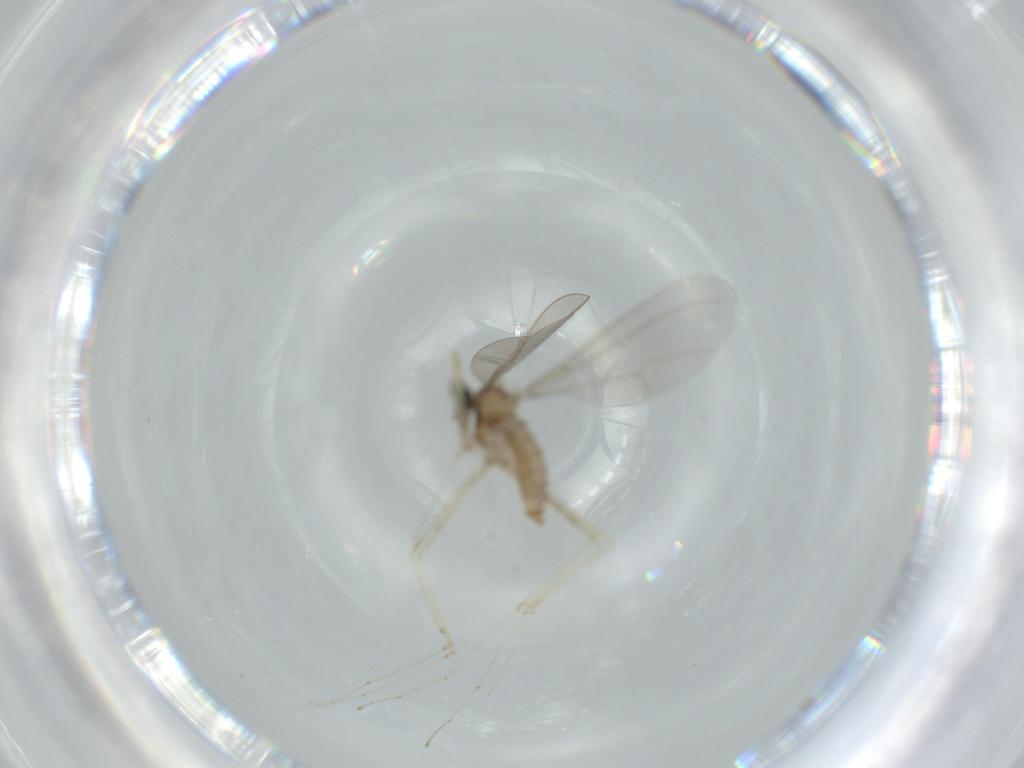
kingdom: Animalia
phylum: Arthropoda
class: Insecta
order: Diptera
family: Cecidomyiidae
